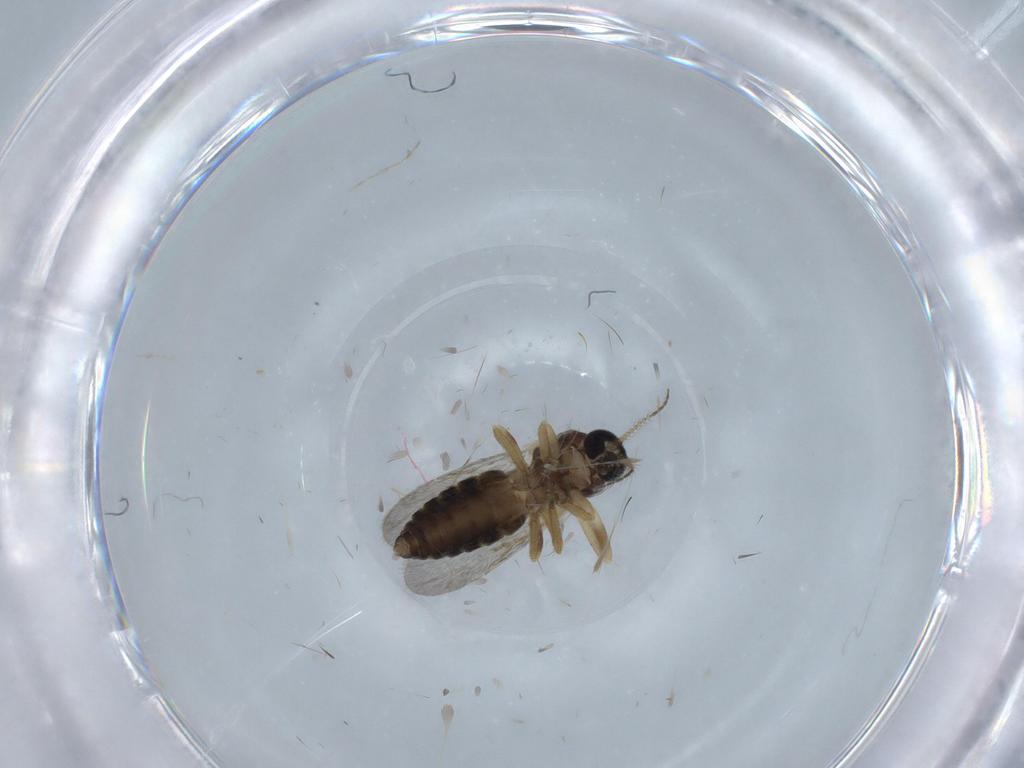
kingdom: Animalia
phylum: Arthropoda
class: Insecta
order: Diptera
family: Ceratopogonidae
